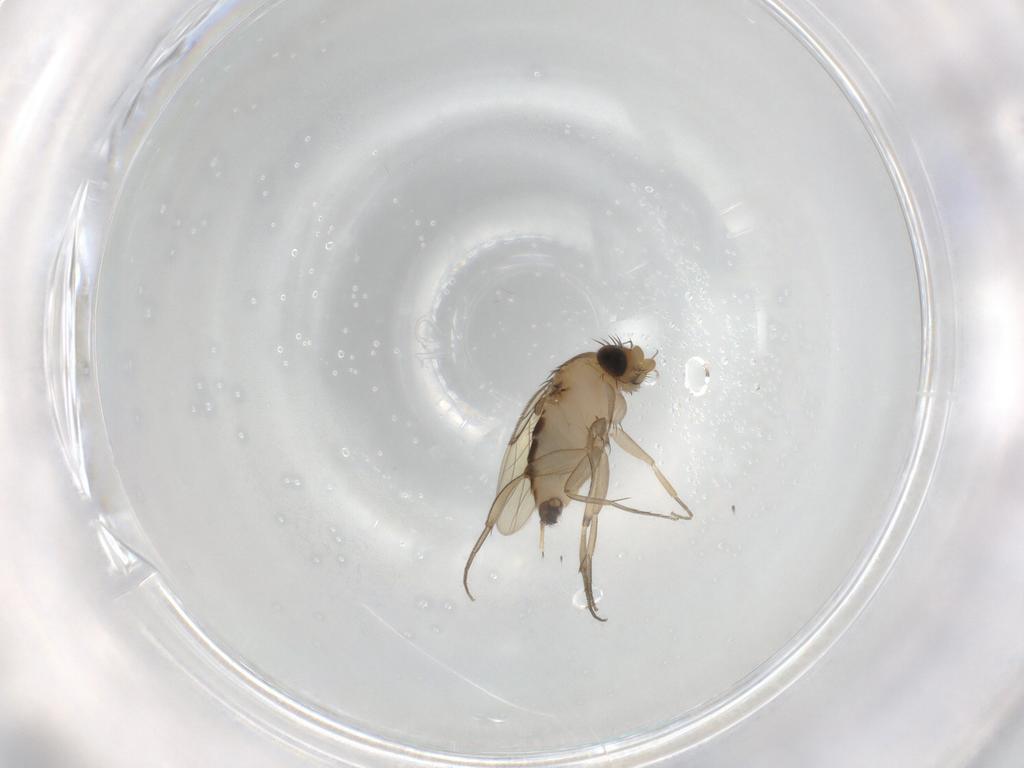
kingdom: Animalia
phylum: Arthropoda
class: Insecta
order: Diptera
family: Phoridae
